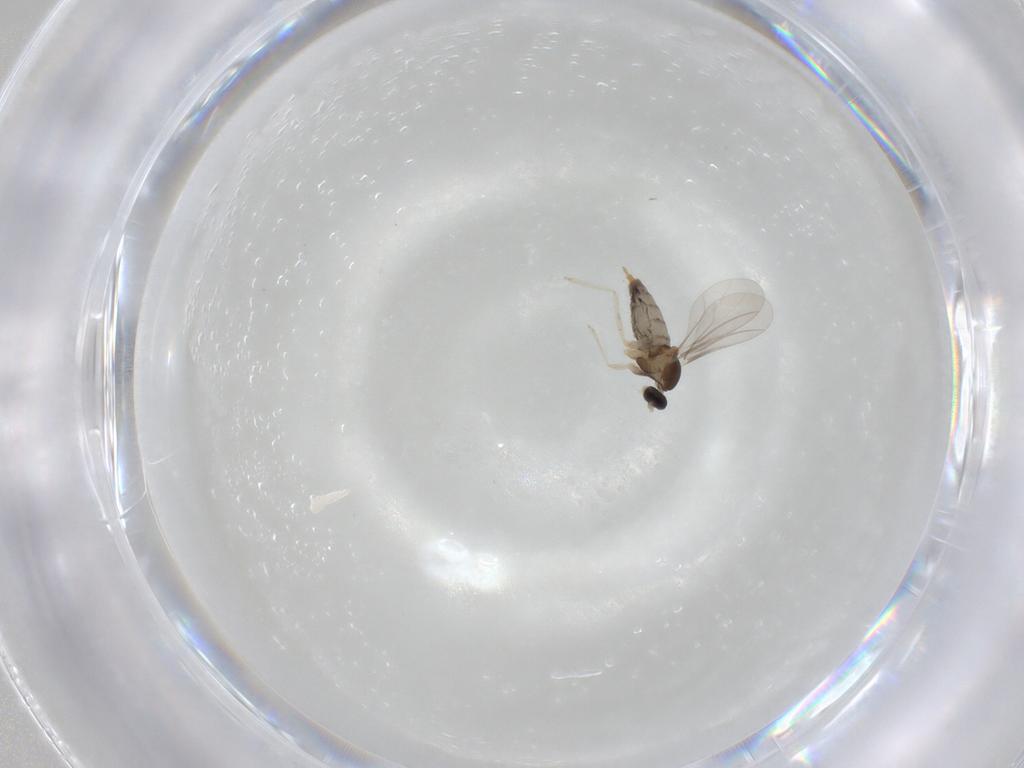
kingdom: Animalia
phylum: Arthropoda
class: Insecta
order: Diptera
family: Cecidomyiidae
